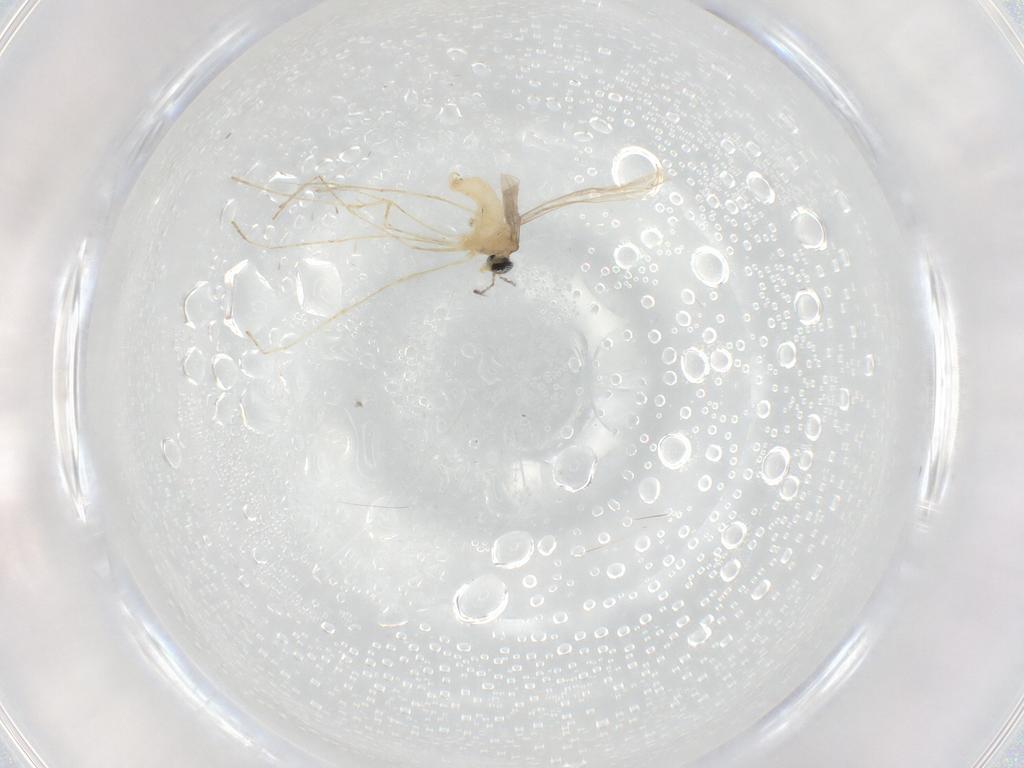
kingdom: Animalia
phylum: Arthropoda
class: Insecta
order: Diptera
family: Cecidomyiidae
